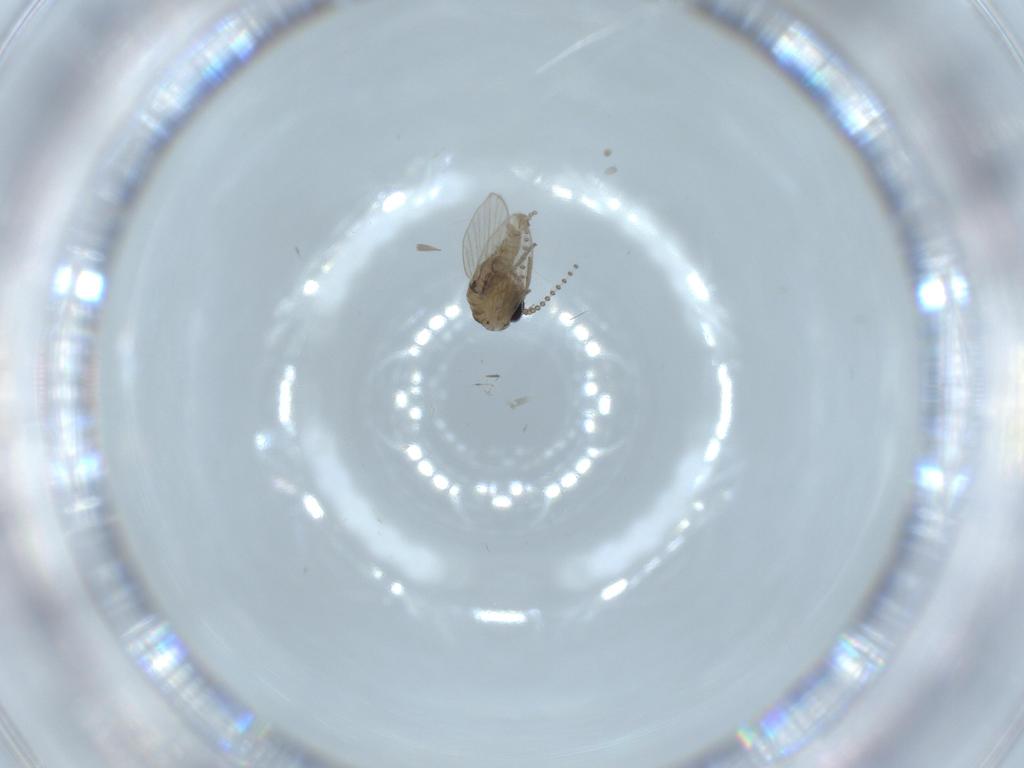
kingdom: Animalia
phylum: Arthropoda
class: Insecta
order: Diptera
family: Psychodidae
